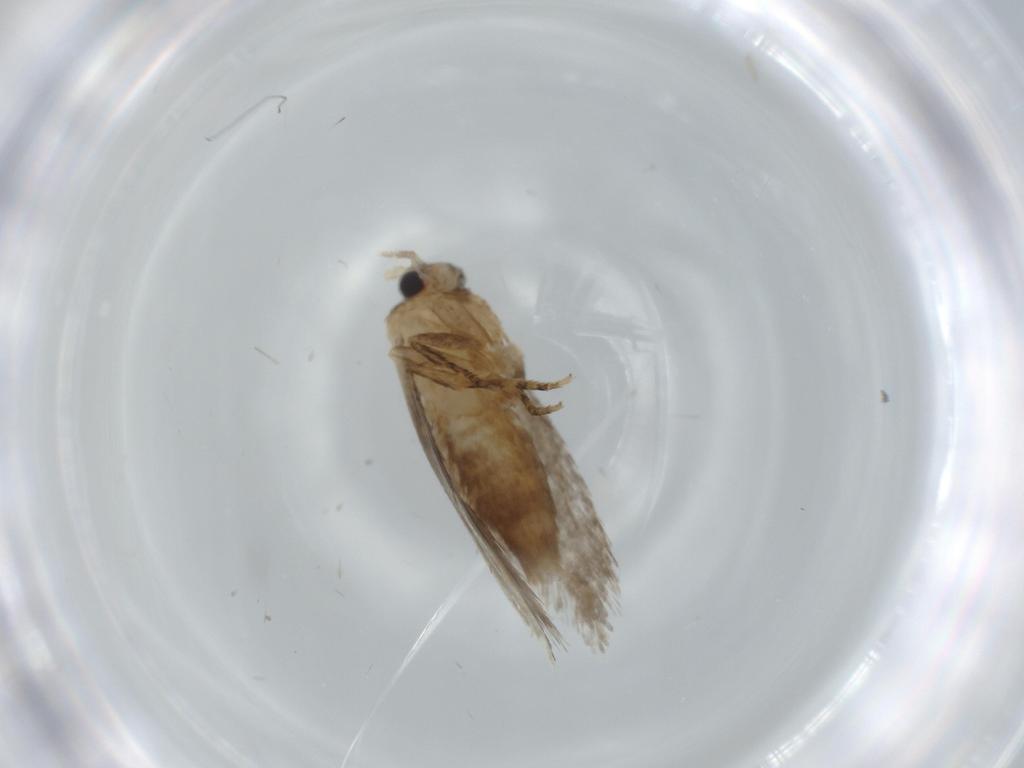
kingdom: Animalia
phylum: Arthropoda
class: Insecta
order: Lepidoptera
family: Tineidae
